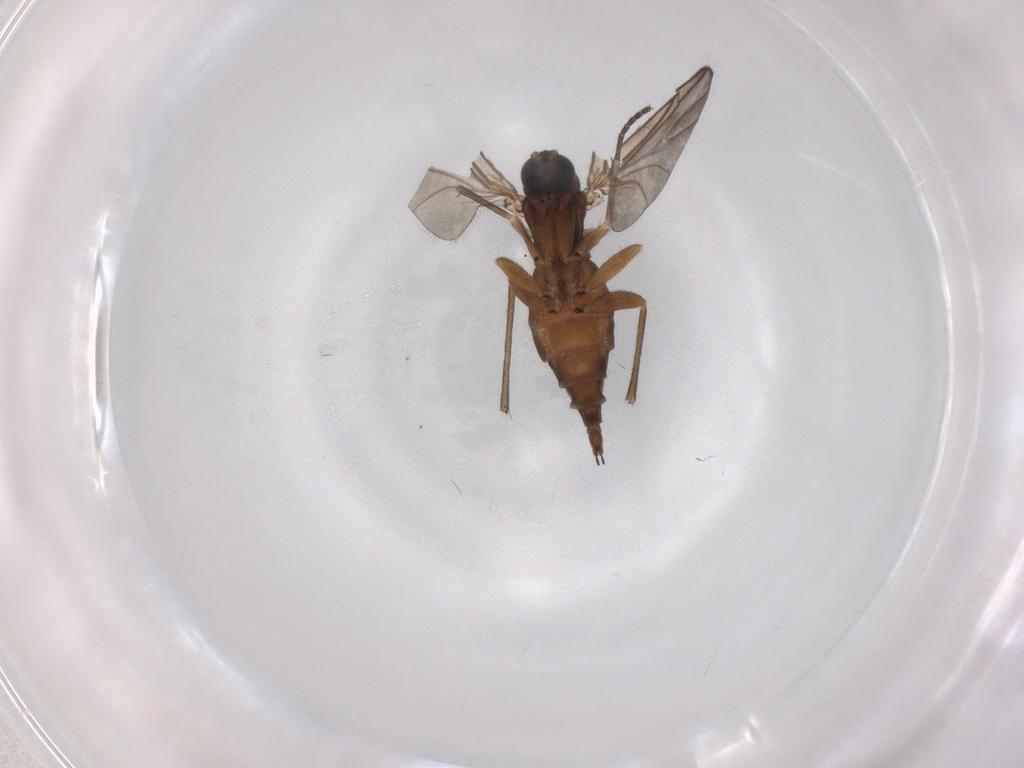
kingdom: Animalia
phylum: Arthropoda
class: Insecta
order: Diptera
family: Sciaridae
